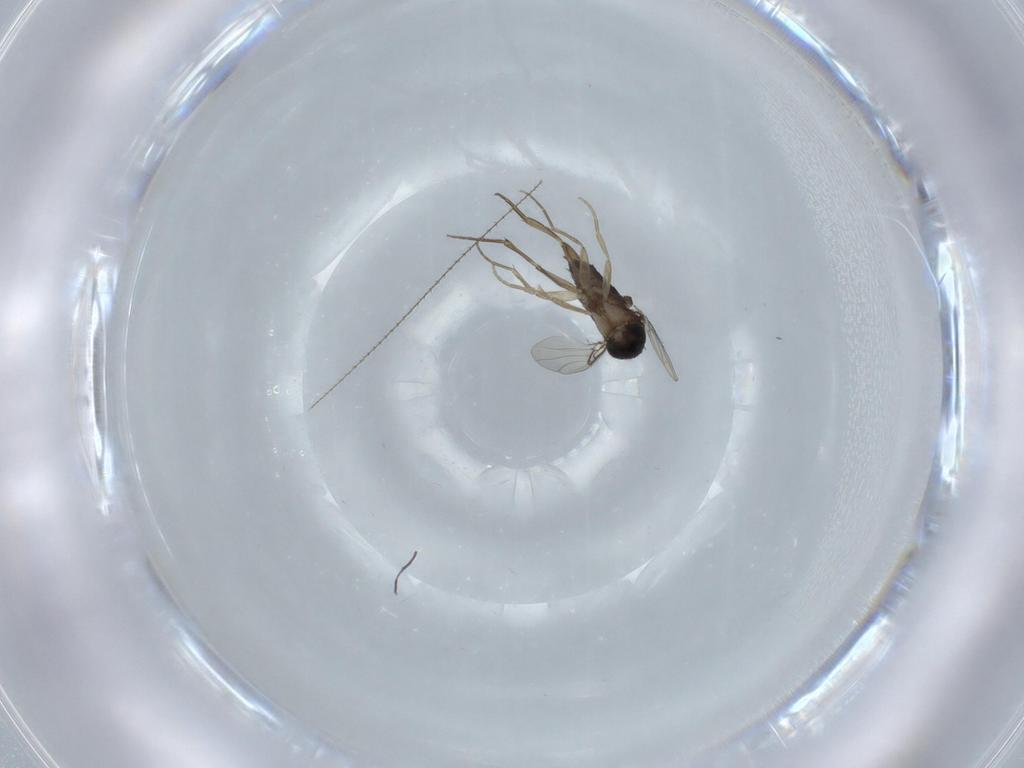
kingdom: Animalia
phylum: Arthropoda
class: Insecta
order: Diptera
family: Phoridae
